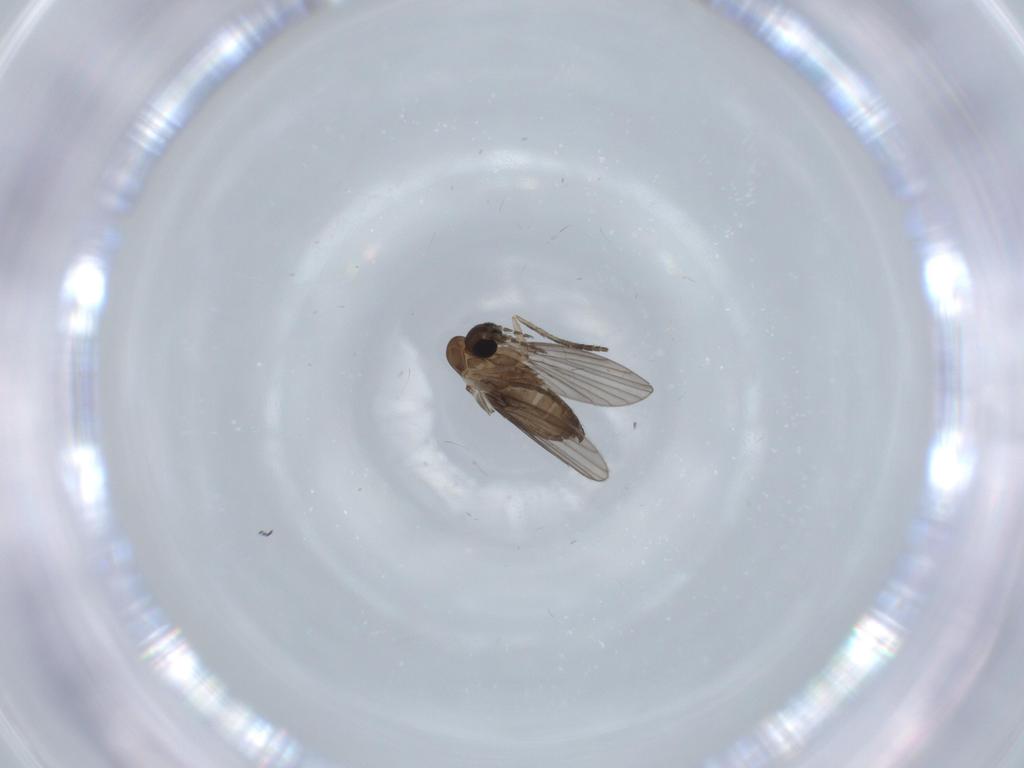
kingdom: Animalia
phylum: Arthropoda
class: Insecta
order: Diptera
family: Psychodidae
